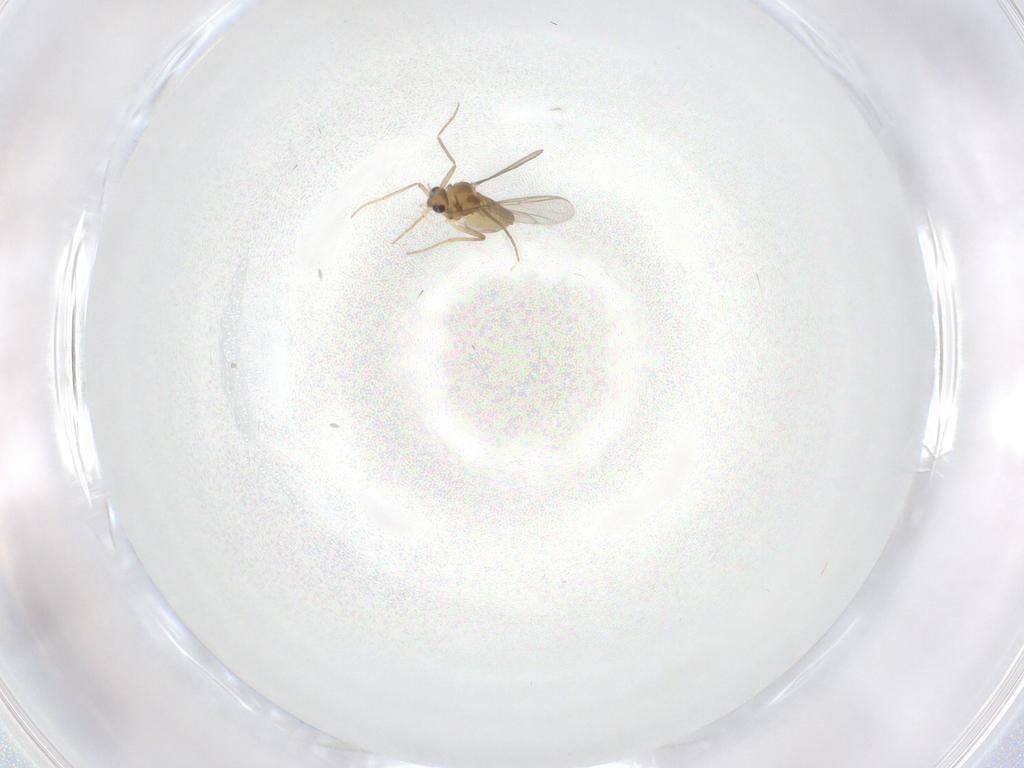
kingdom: Animalia
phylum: Arthropoda
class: Insecta
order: Diptera
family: Chironomidae
